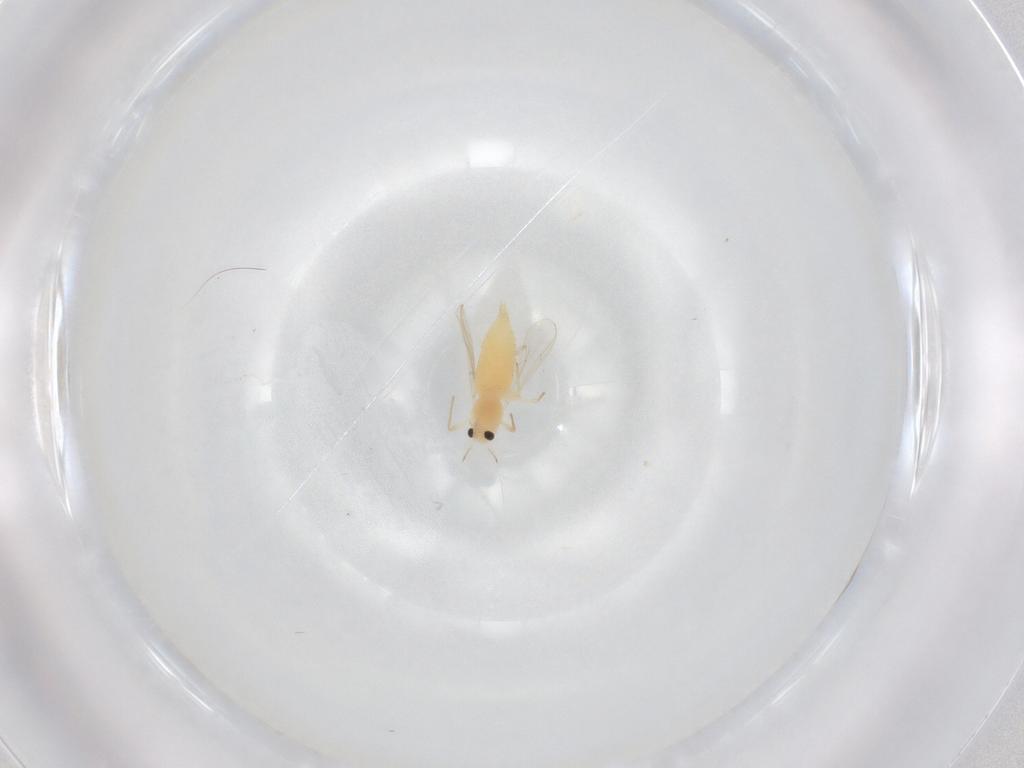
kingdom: Animalia
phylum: Arthropoda
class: Insecta
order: Diptera
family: Chironomidae
